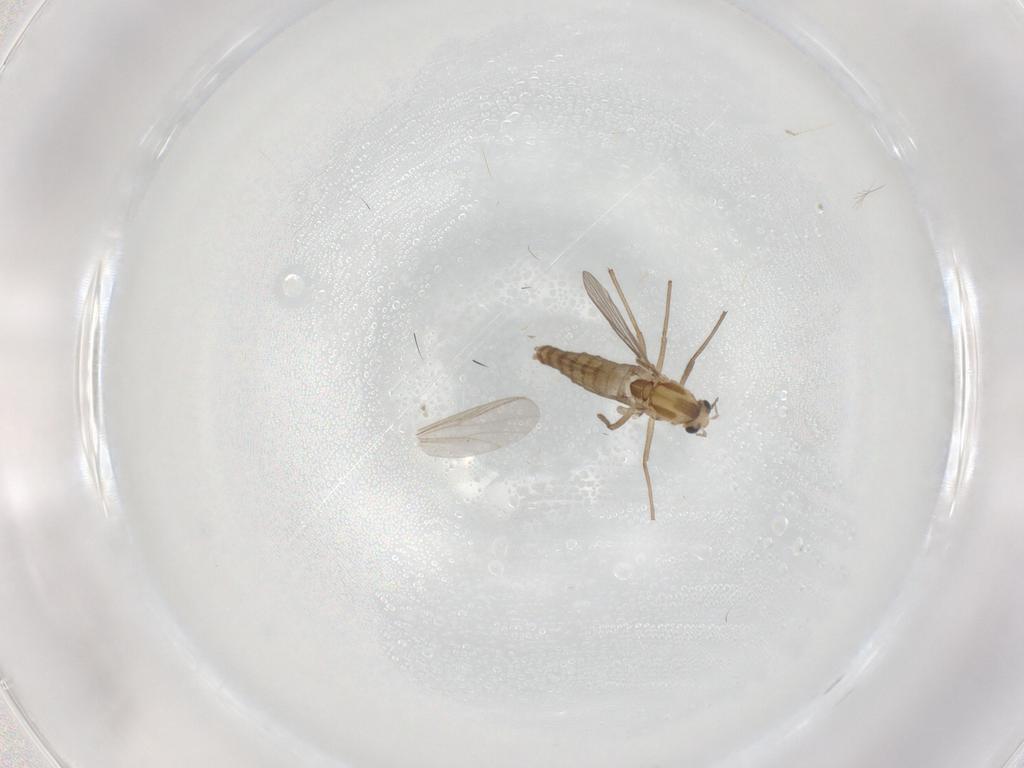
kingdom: Animalia
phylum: Arthropoda
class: Insecta
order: Diptera
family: Chironomidae
